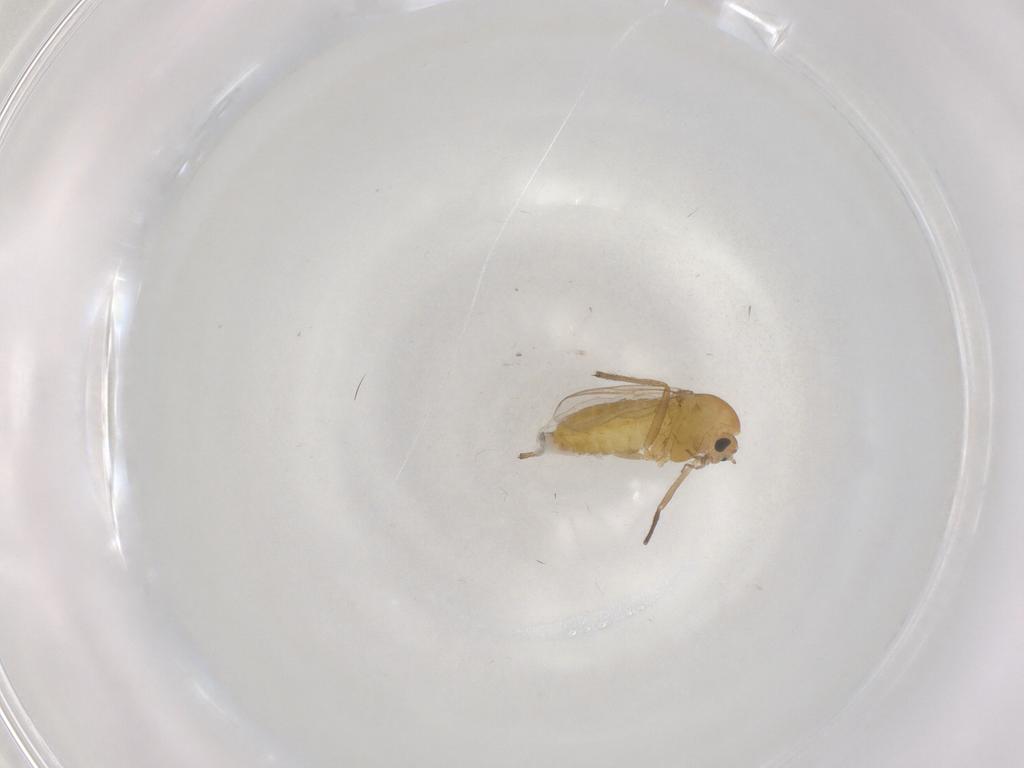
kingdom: Animalia
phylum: Arthropoda
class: Insecta
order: Diptera
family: Chironomidae
